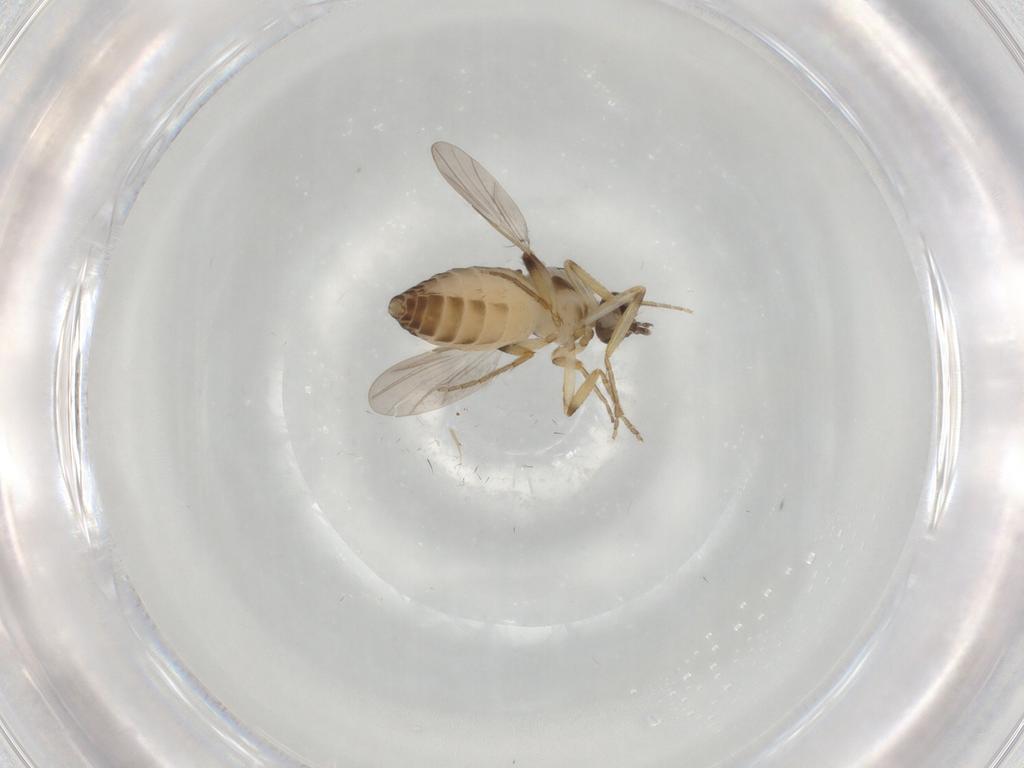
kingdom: Animalia
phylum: Arthropoda
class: Insecta
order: Diptera
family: Ceratopogonidae
